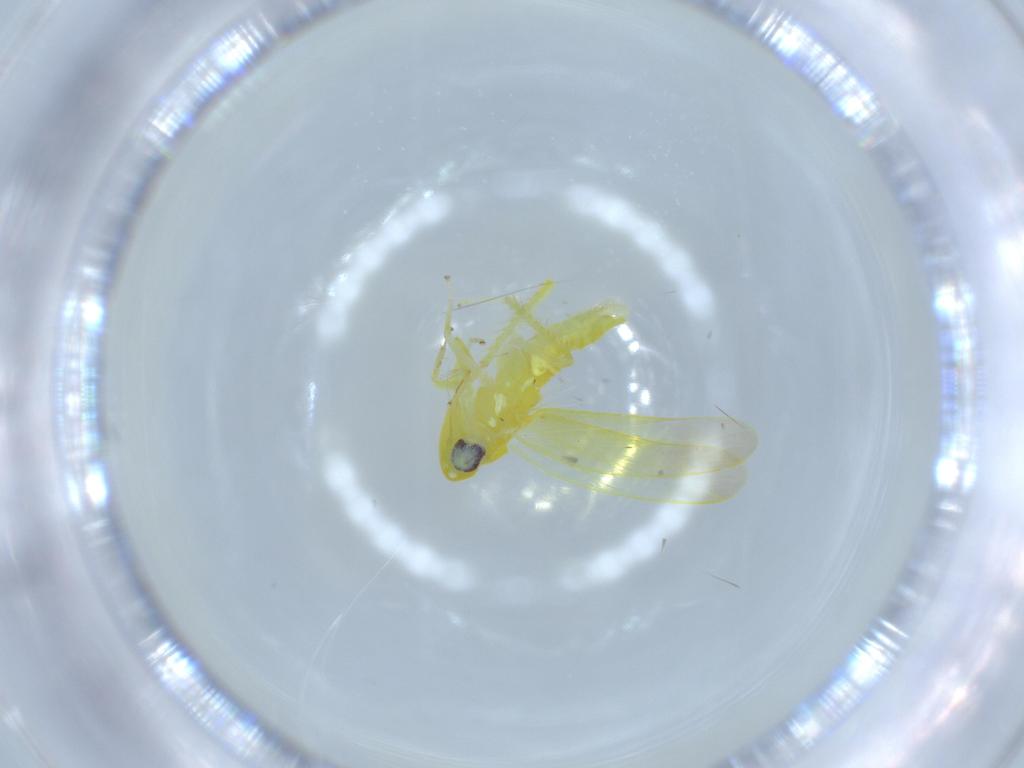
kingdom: Animalia
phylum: Arthropoda
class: Insecta
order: Hemiptera
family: Cicadellidae
